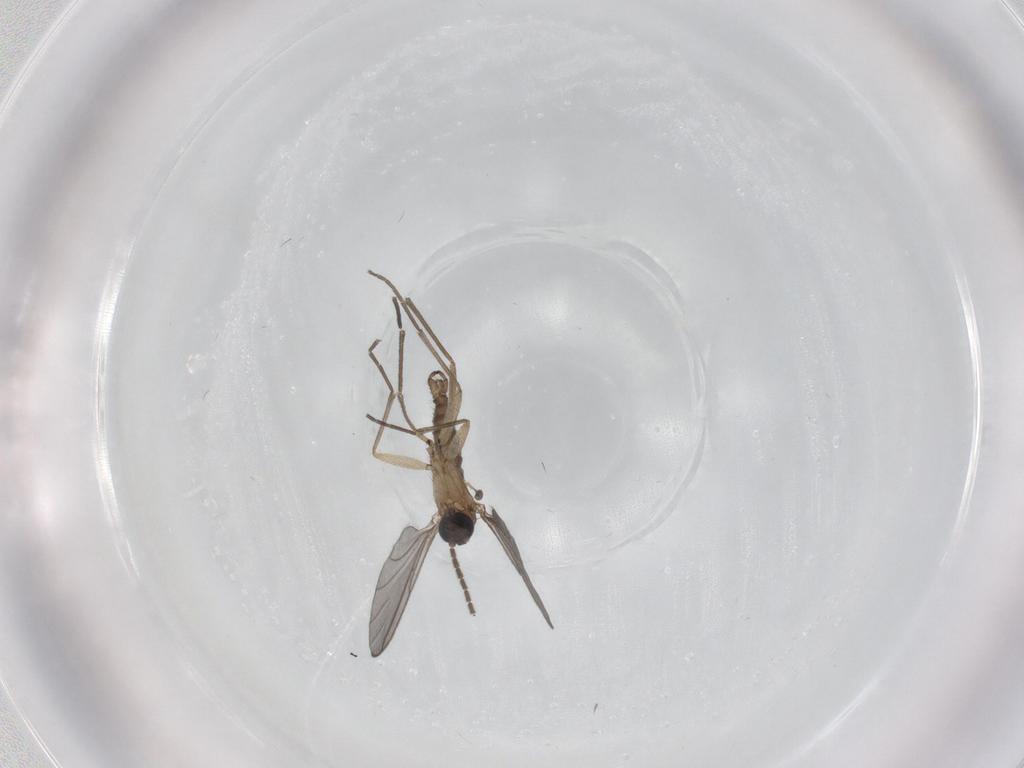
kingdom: Animalia
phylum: Arthropoda
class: Insecta
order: Diptera
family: Sciaridae
